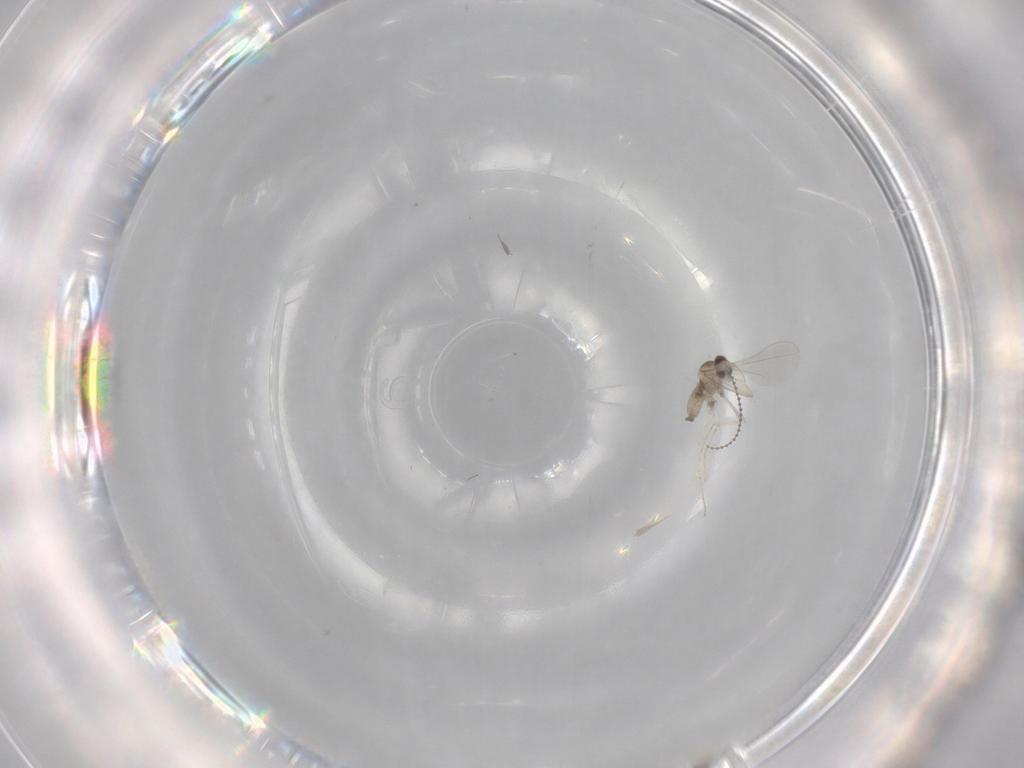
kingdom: Animalia
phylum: Arthropoda
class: Insecta
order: Diptera
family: Cecidomyiidae
